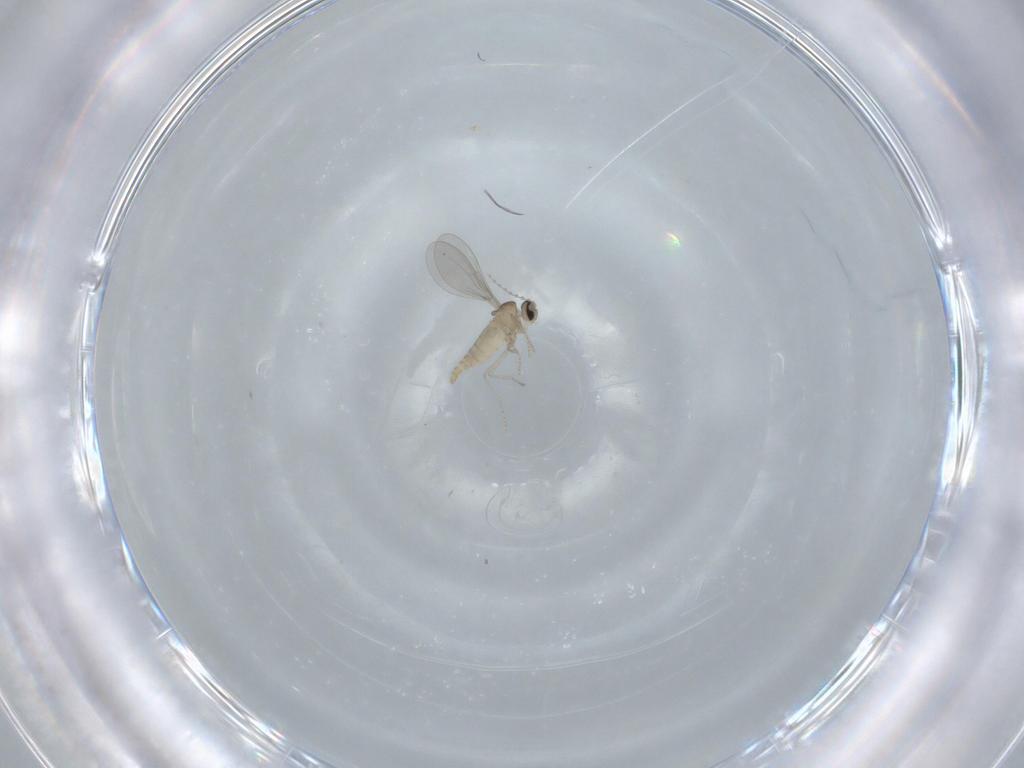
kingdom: Animalia
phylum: Arthropoda
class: Insecta
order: Diptera
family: Cecidomyiidae
